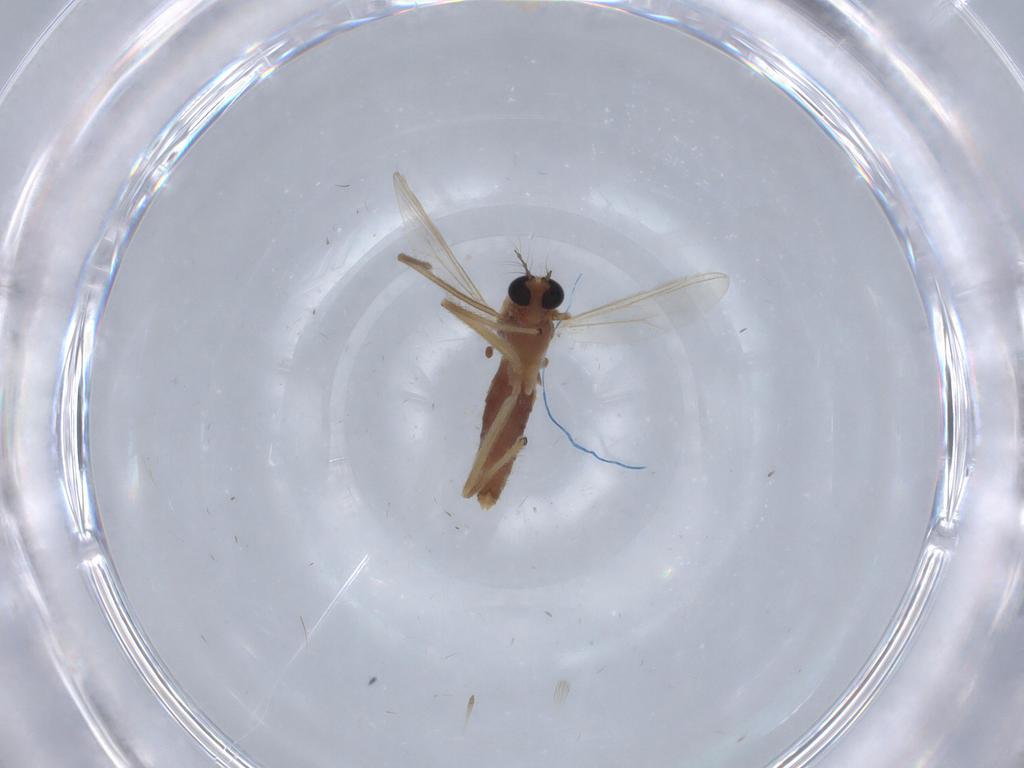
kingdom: Animalia
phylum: Arthropoda
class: Insecta
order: Diptera
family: Chironomidae
